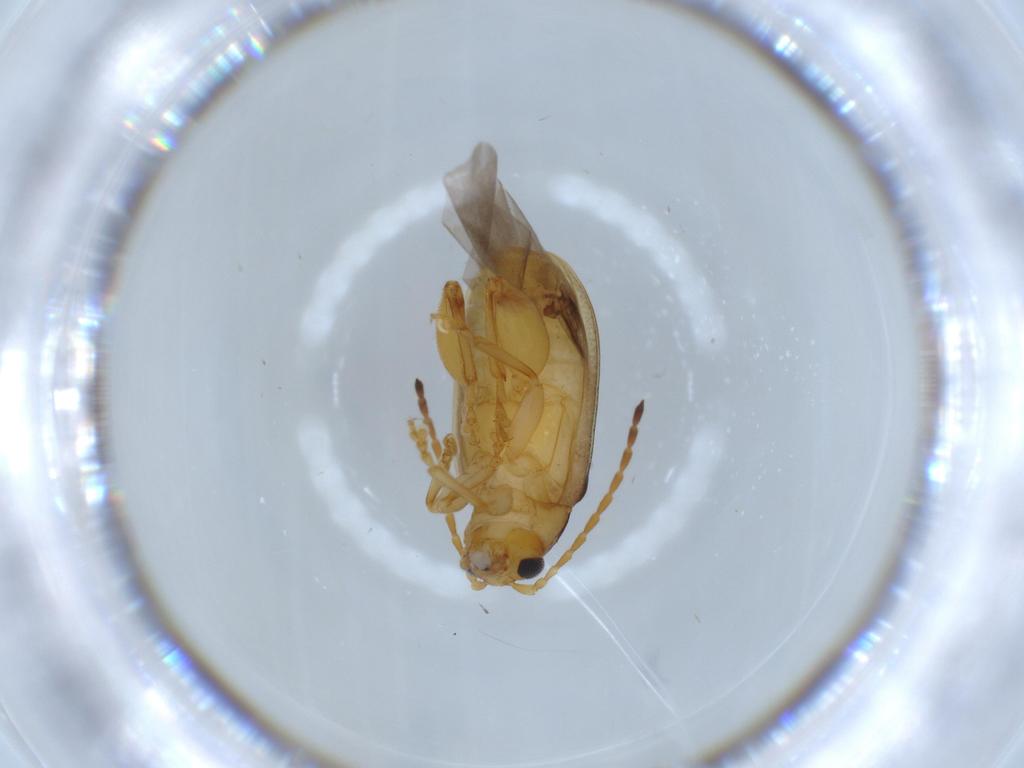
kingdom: Animalia
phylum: Arthropoda
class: Insecta
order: Coleoptera
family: Chrysomelidae
